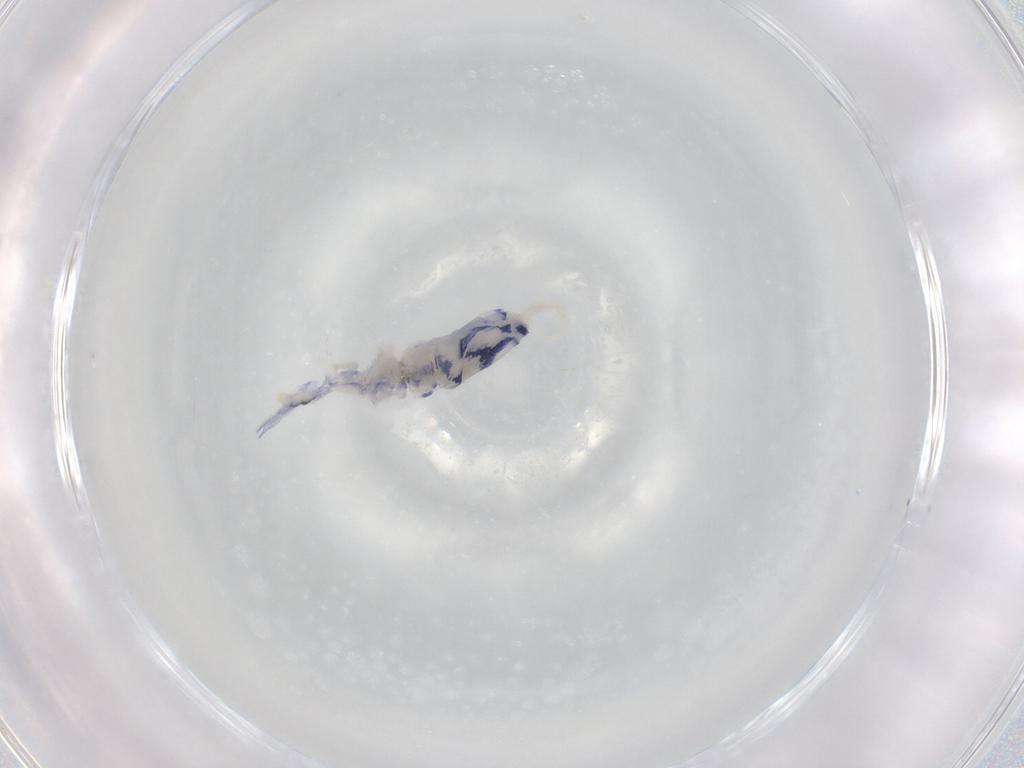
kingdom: Animalia
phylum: Arthropoda
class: Collembola
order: Entomobryomorpha
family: Entomobryidae
